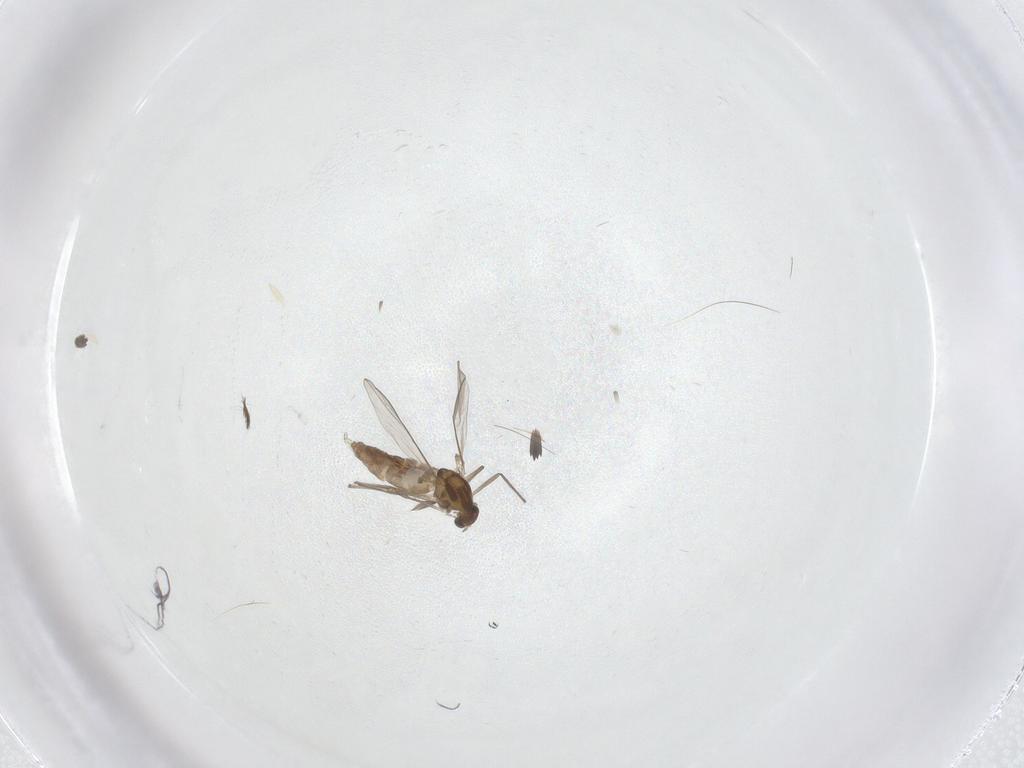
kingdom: Animalia
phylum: Arthropoda
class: Insecta
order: Diptera
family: Chironomidae
